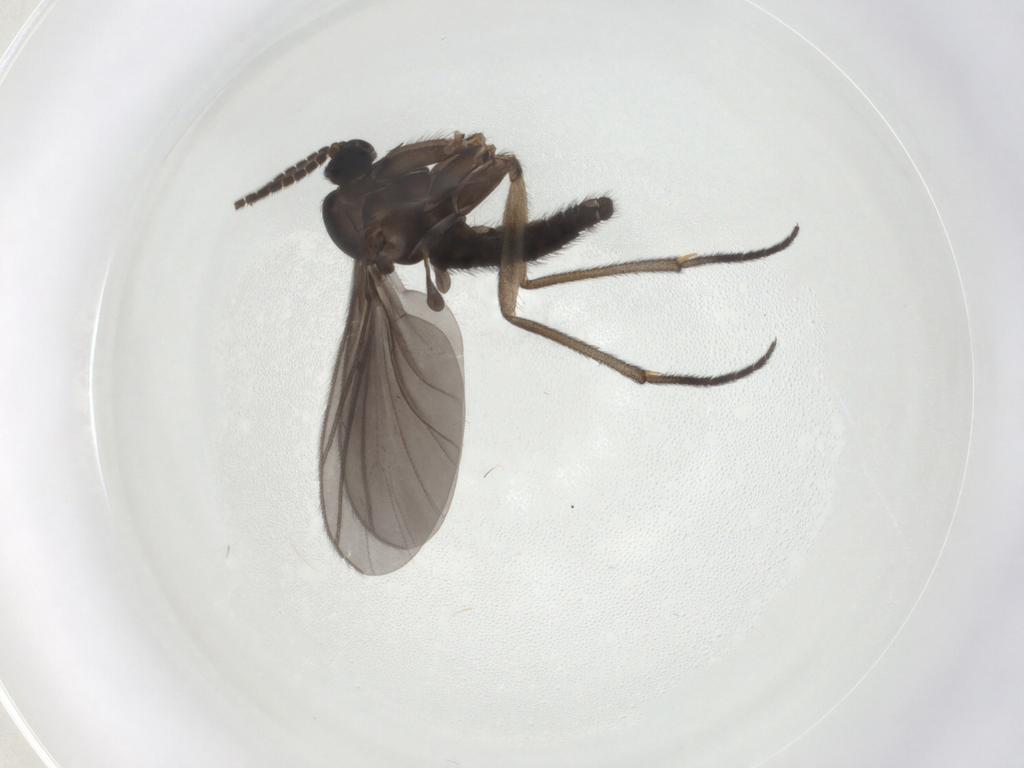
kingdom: Animalia
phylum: Arthropoda
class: Insecta
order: Diptera
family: Sciaridae
